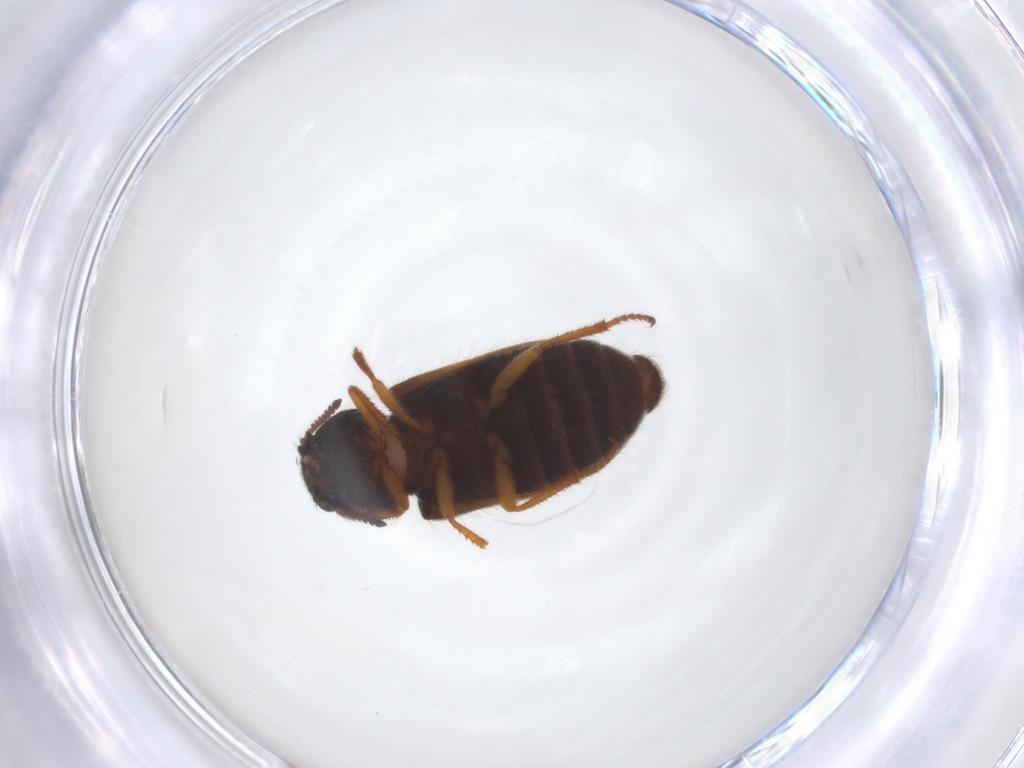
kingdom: Animalia
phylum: Arthropoda
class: Insecta
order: Coleoptera
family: Melyridae
